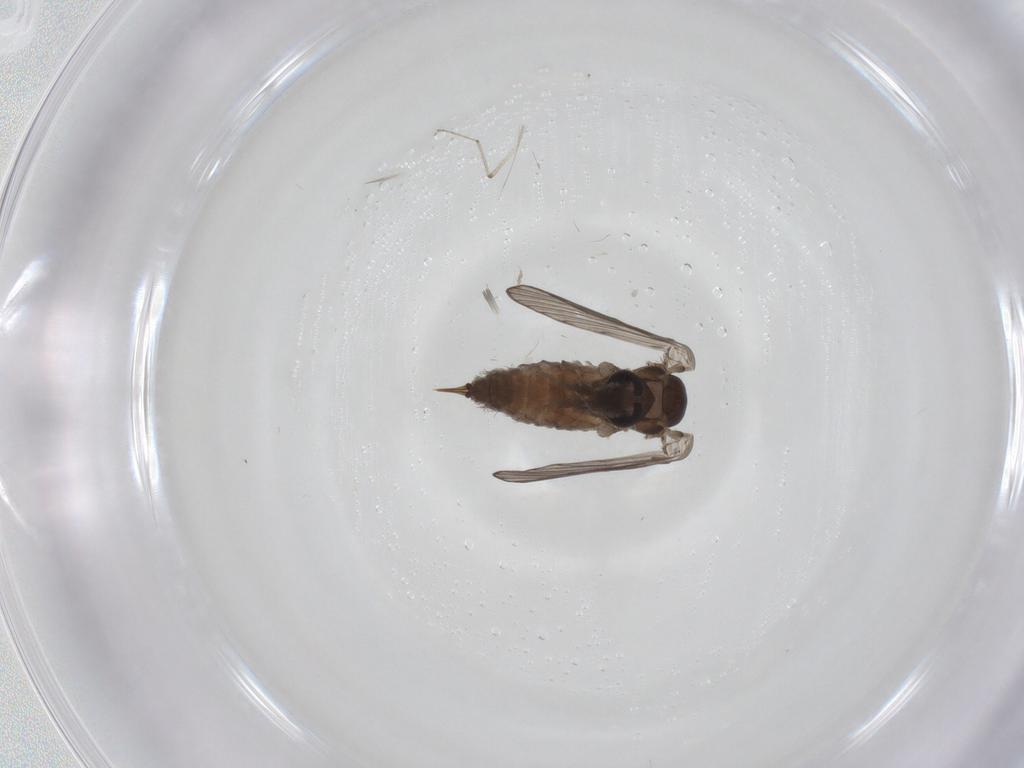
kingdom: Animalia
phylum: Arthropoda
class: Insecta
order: Diptera
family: Psychodidae
